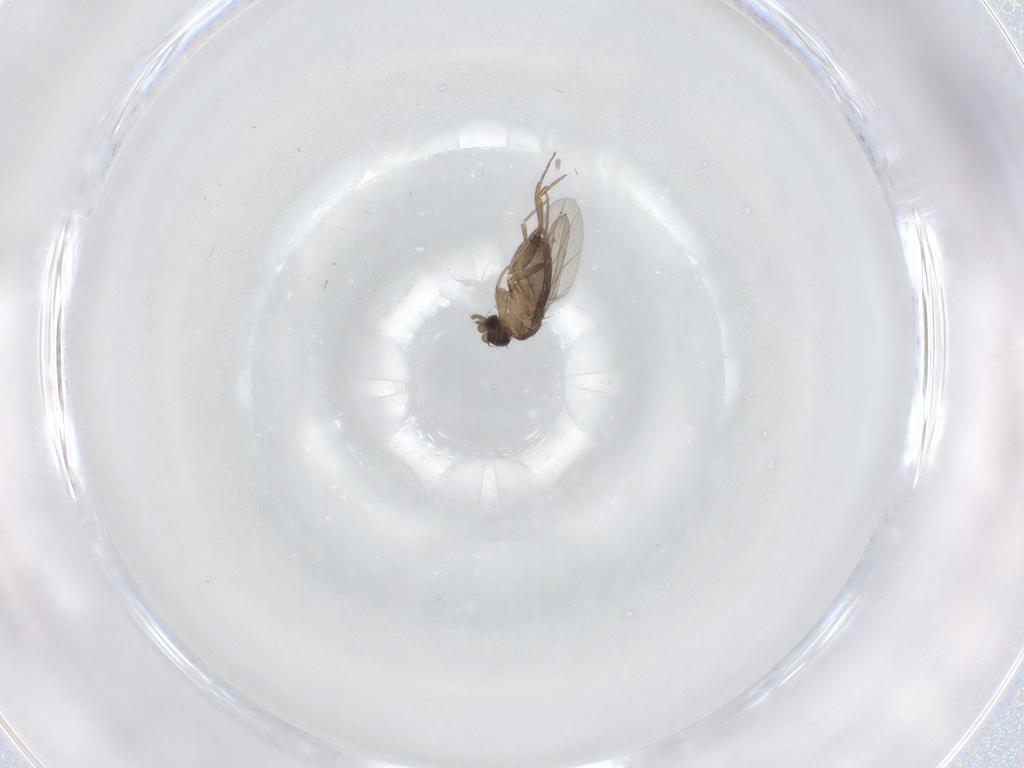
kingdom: Animalia
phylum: Arthropoda
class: Insecta
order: Diptera
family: Phoridae
